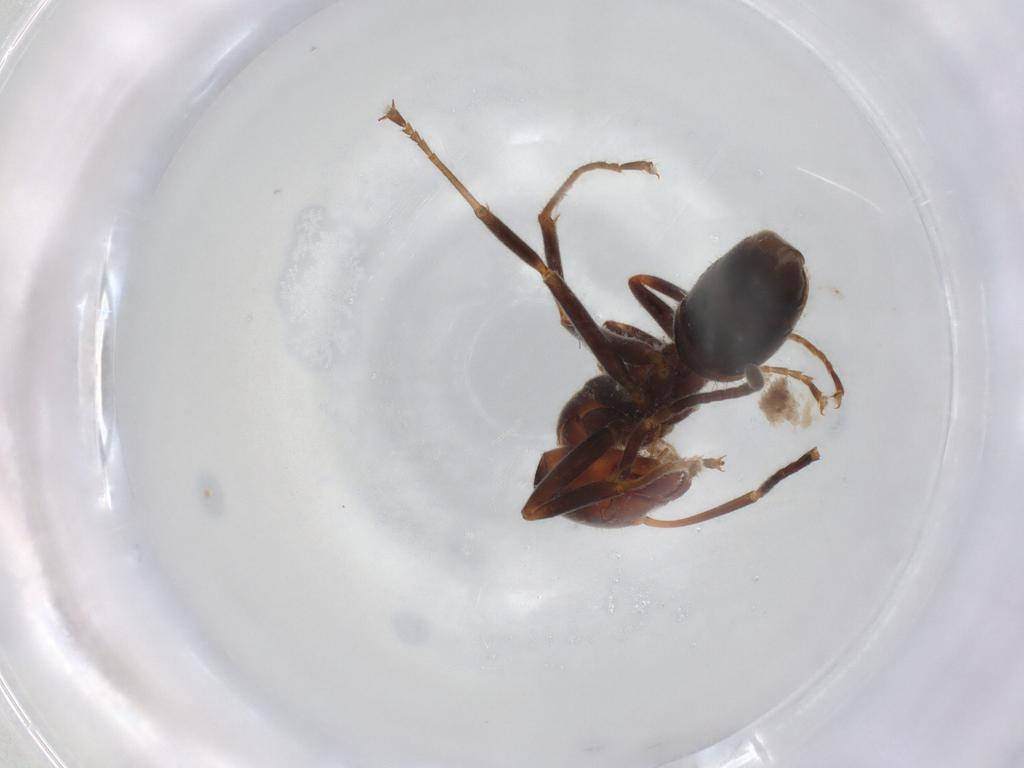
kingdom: Animalia
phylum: Arthropoda
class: Insecta
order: Hymenoptera
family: Formicidae
